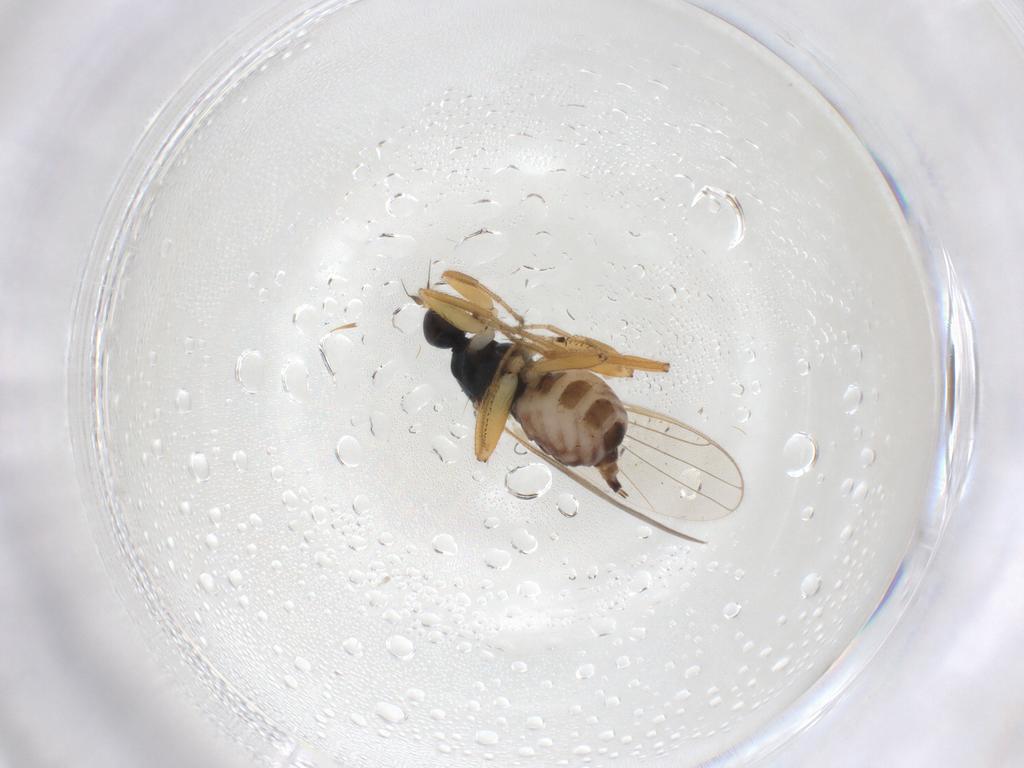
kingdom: Animalia
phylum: Arthropoda
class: Insecta
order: Diptera
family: Hybotidae
